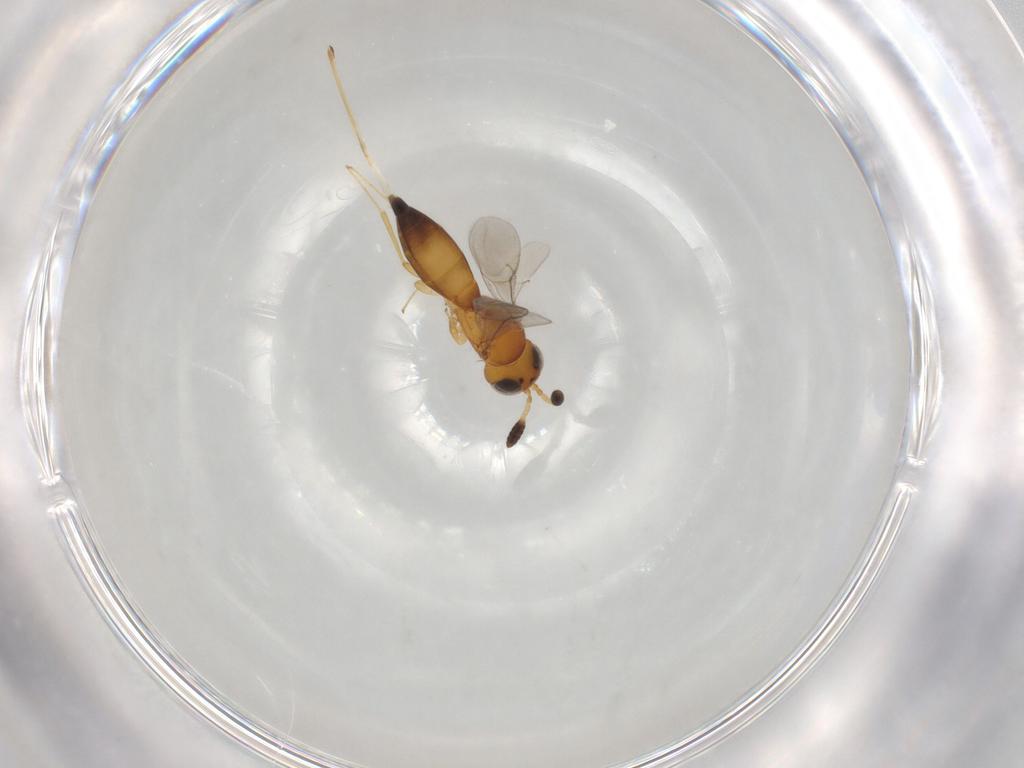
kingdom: Animalia
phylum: Arthropoda
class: Insecta
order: Hymenoptera
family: Scelionidae
